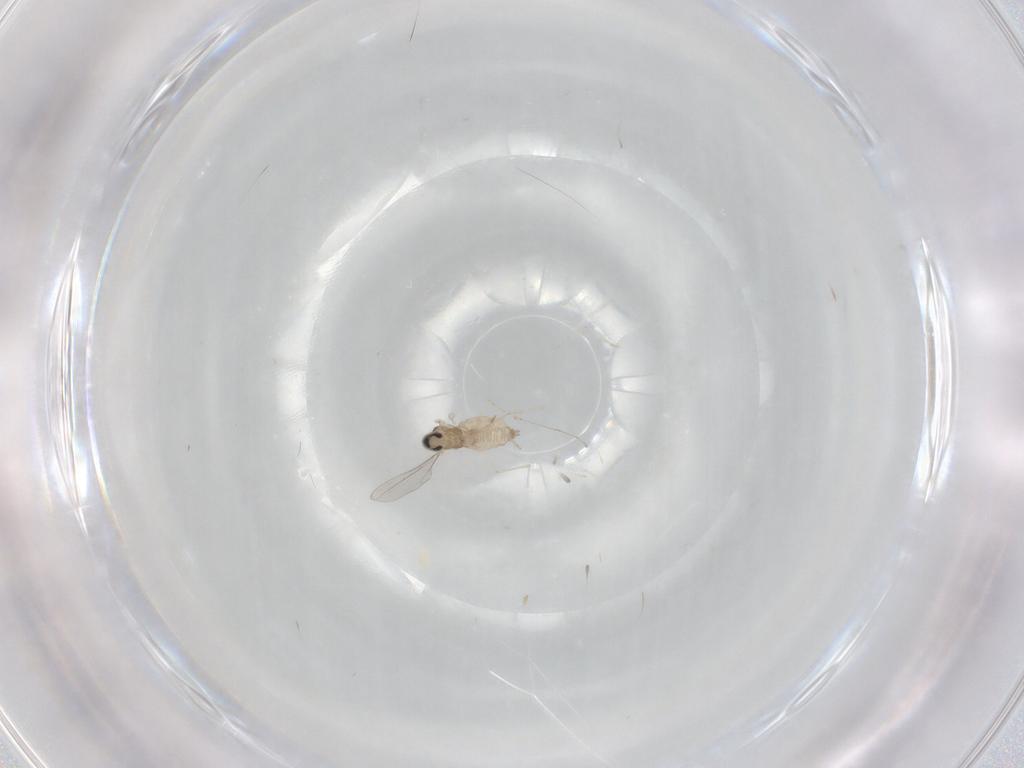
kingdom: Animalia
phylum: Arthropoda
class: Insecta
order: Diptera
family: Cecidomyiidae
